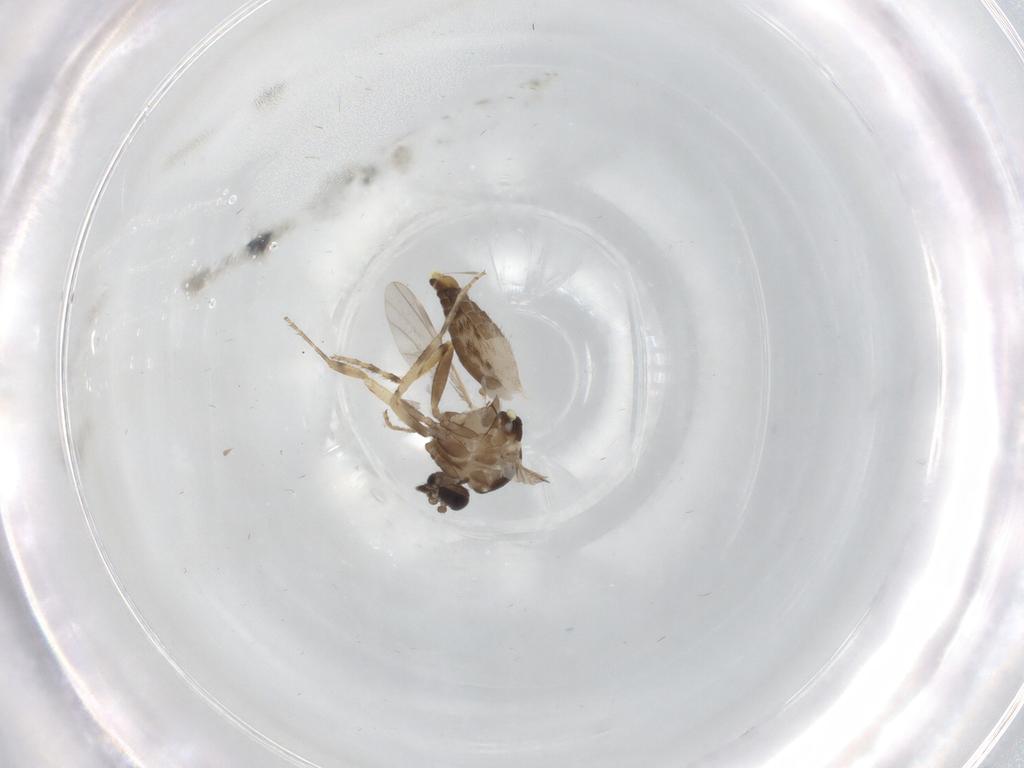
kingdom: Animalia
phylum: Arthropoda
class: Insecta
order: Diptera
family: Ceratopogonidae
